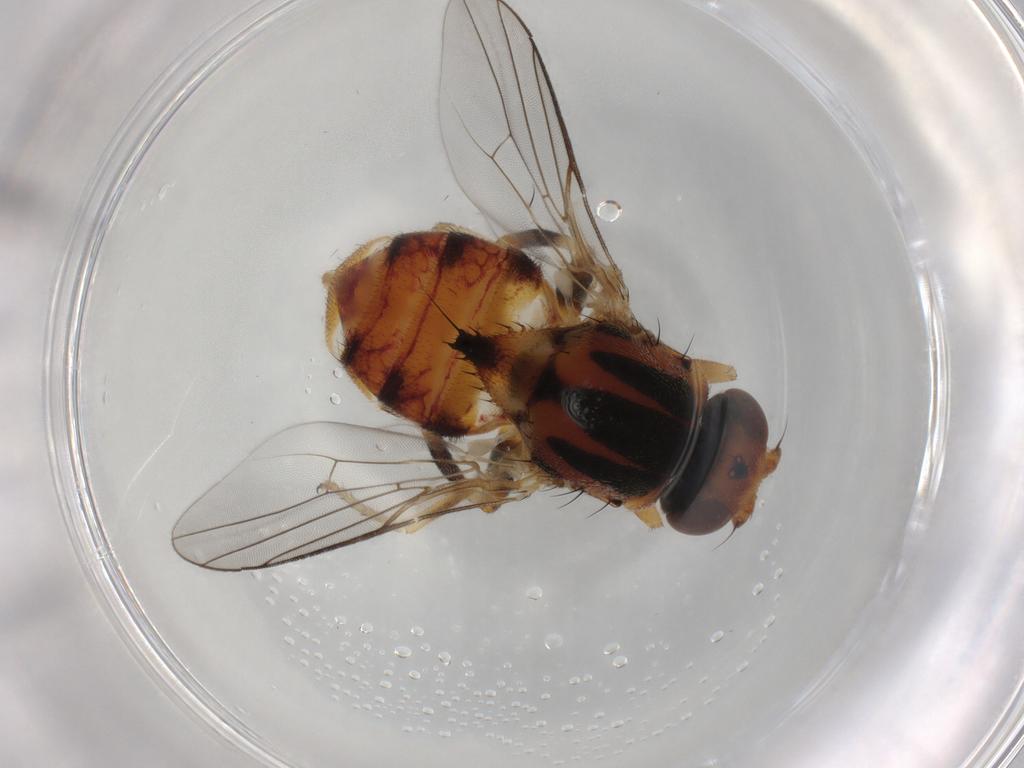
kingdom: Animalia
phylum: Arthropoda
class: Insecta
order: Diptera
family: Chloropidae
